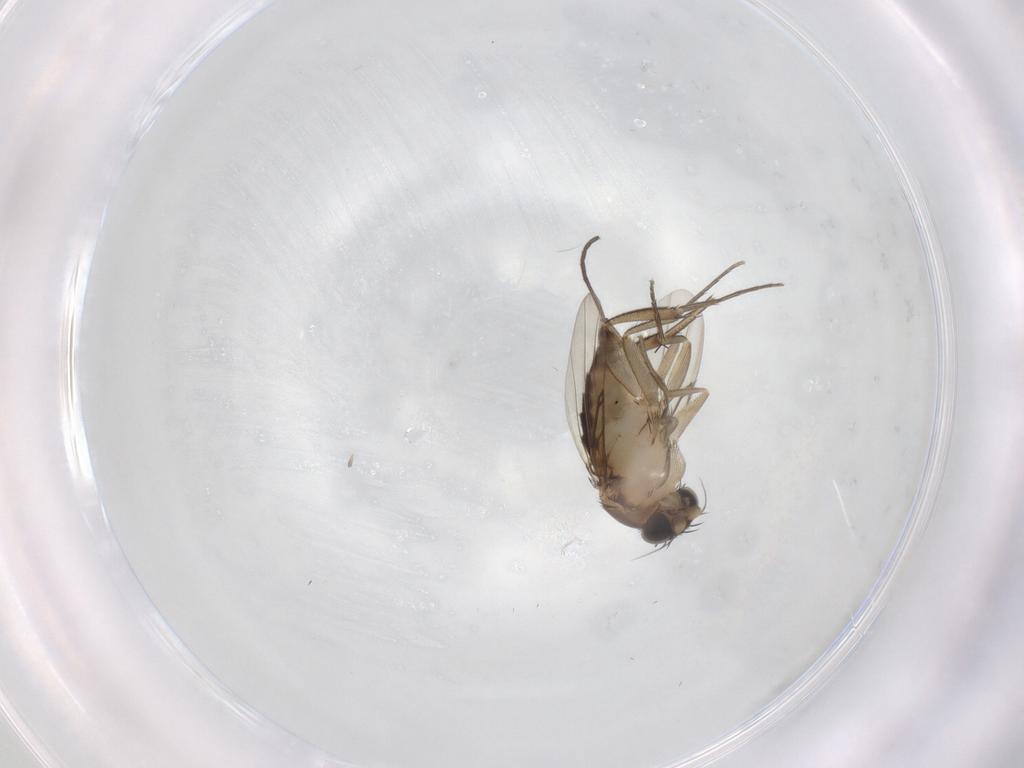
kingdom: Animalia
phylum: Arthropoda
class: Insecta
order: Diptera
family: Phoridae
